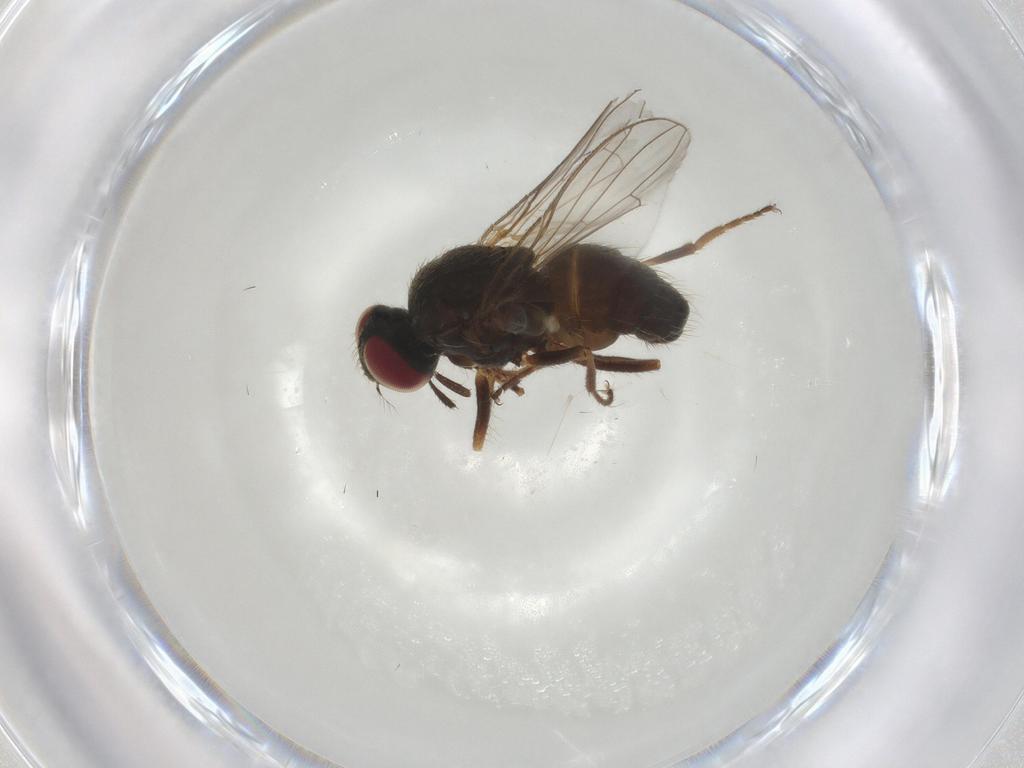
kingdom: Animalia
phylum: Arthropoda
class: Insecta
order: Diptera
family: Muscidae
